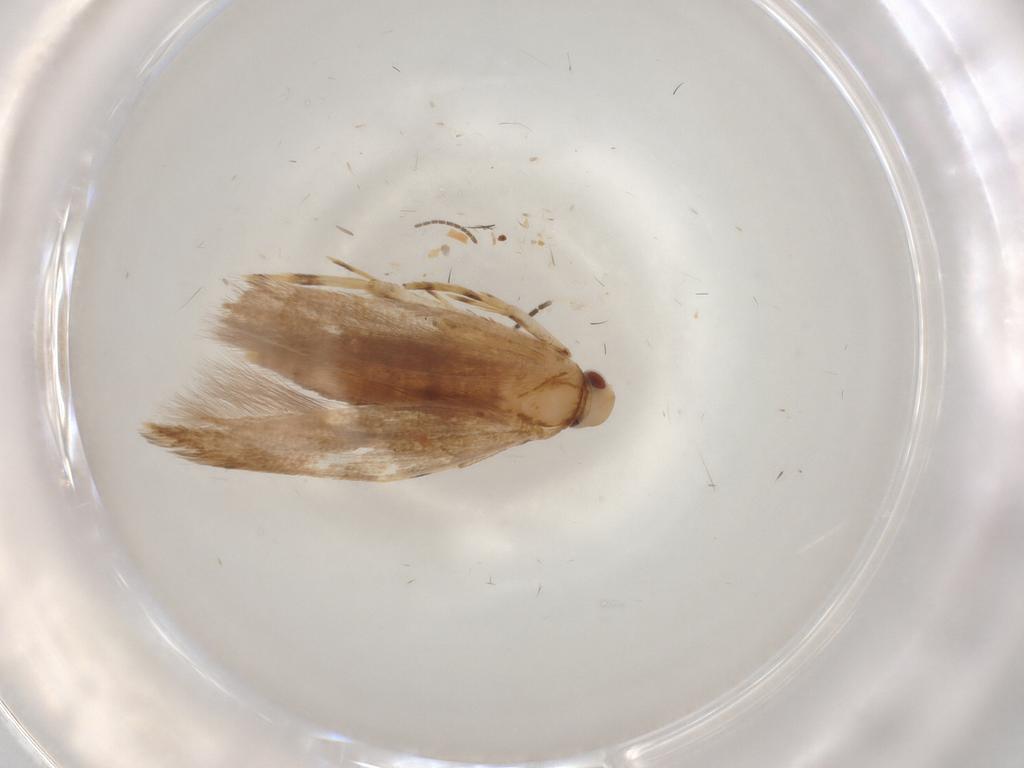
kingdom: Animalia
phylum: Arthropoda
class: Insecta
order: Lepidoptera
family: Cosmopterigidae
